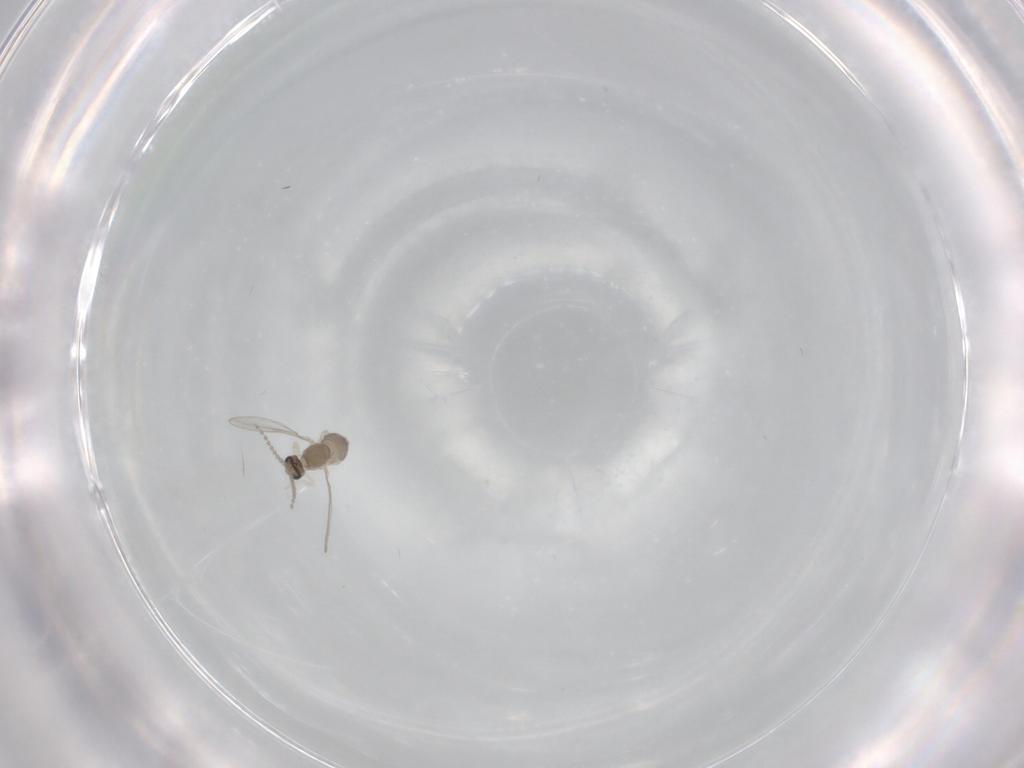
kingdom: Animalia
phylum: Arthropoda
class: Insecta
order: Diptera
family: Cecidomyiidae
